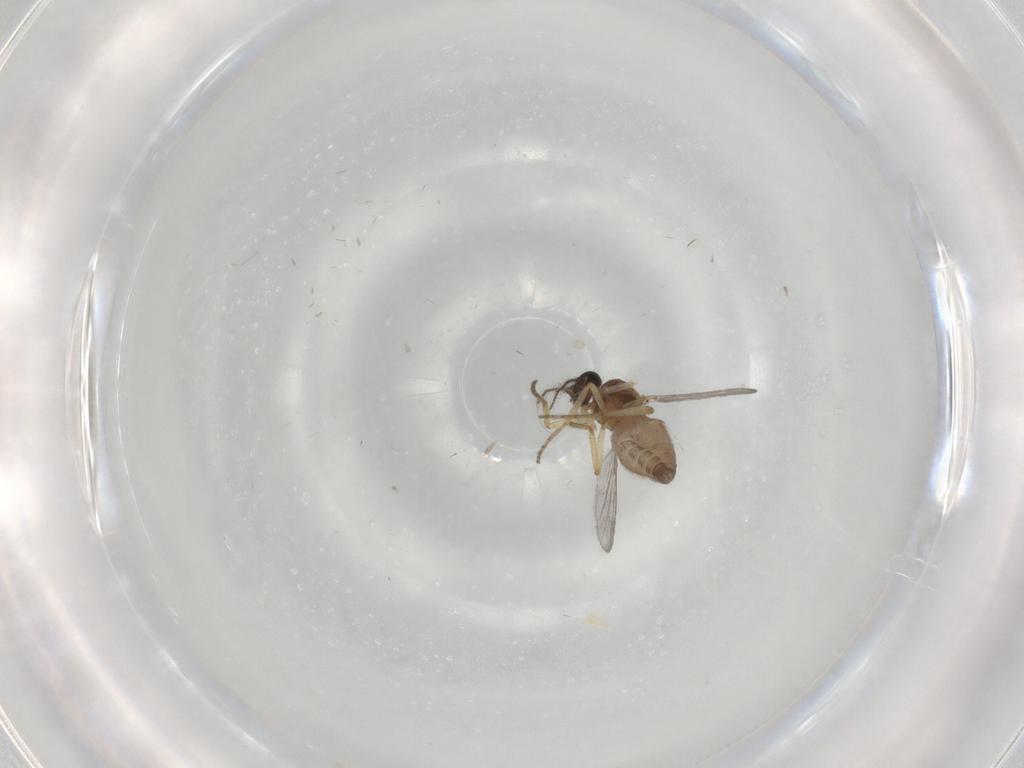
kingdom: Animalia
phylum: Arthropoda
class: Insecta
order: Diptera
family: Ceratopogonidae
